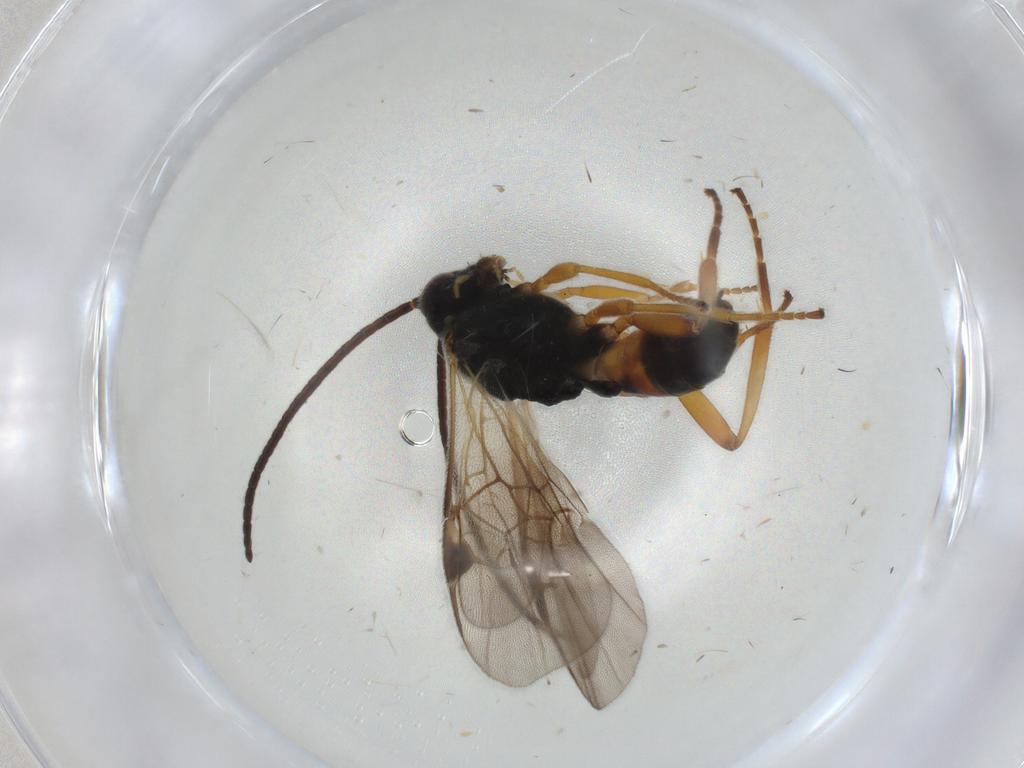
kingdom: Animalia
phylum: Arthropoda
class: Insecta
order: Hymenoptera
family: Braconidae
